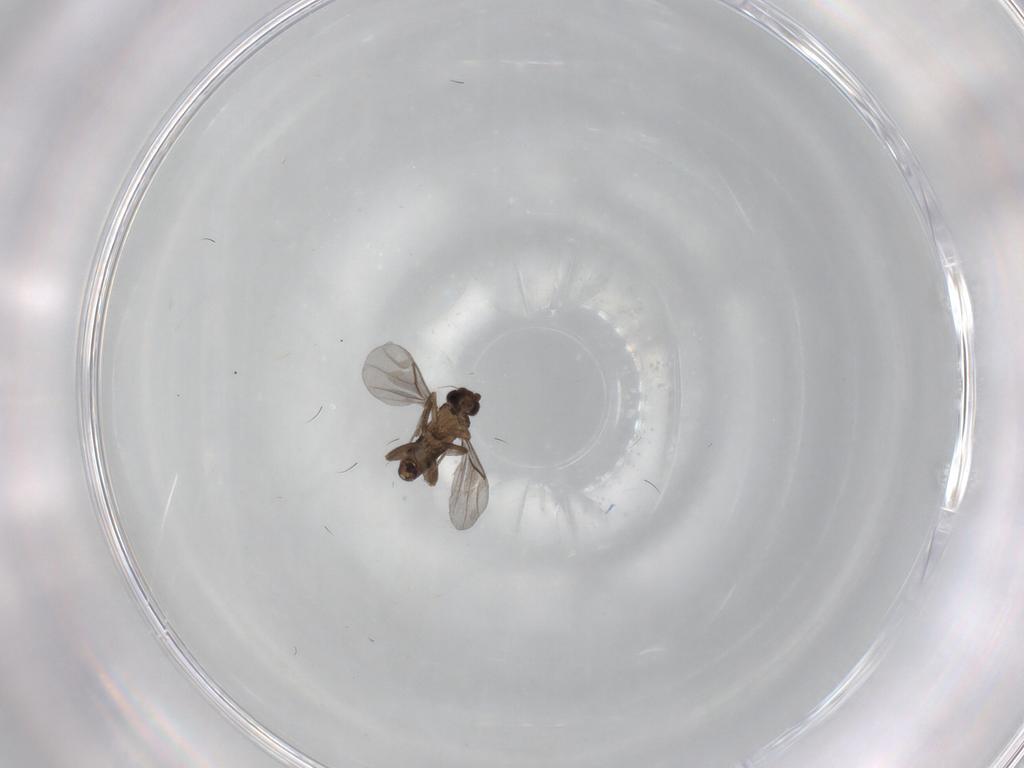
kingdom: Animalia
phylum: Arthropoda
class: Insecta
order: Diptera
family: Phoridae
